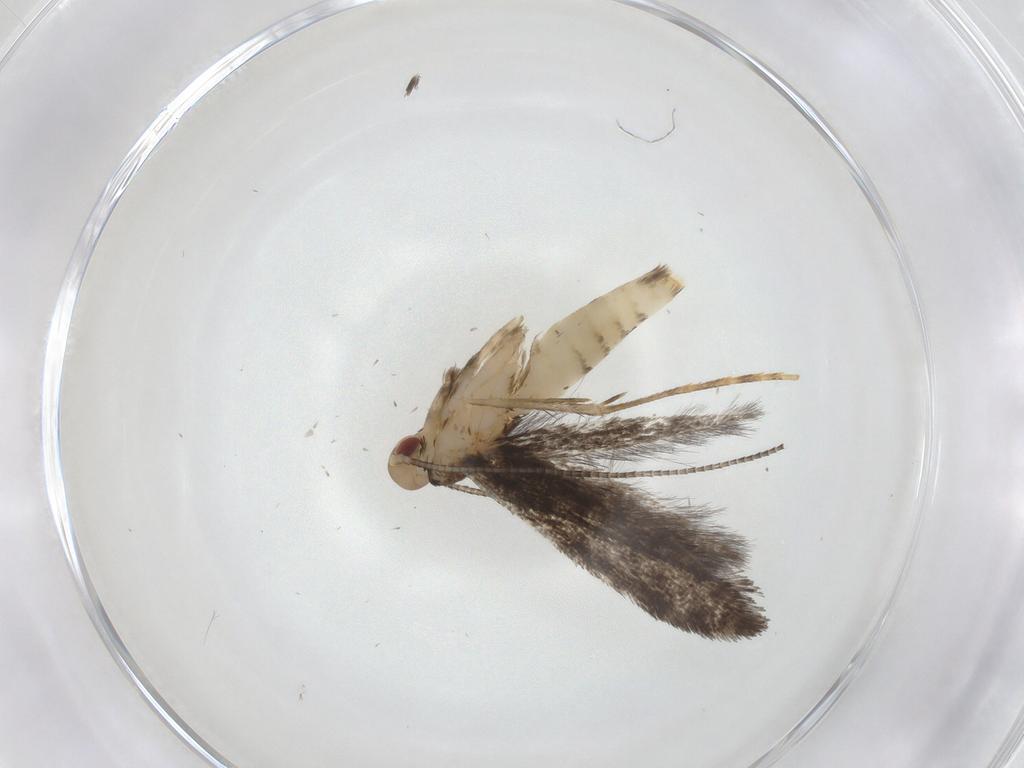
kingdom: Animalia
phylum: Arthropoda
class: Insecta
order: Lepidoptera
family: Gracillariidae
